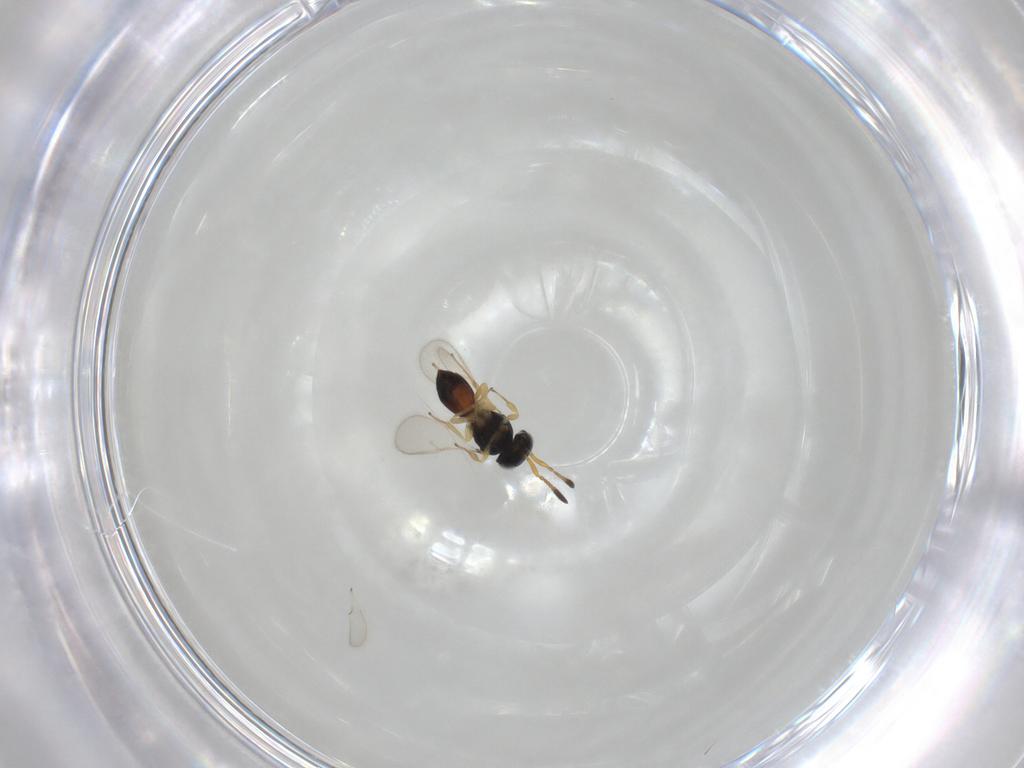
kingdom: Animalia
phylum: Arthropoda
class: Insecta
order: Hymenoptera
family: Scelionidae
